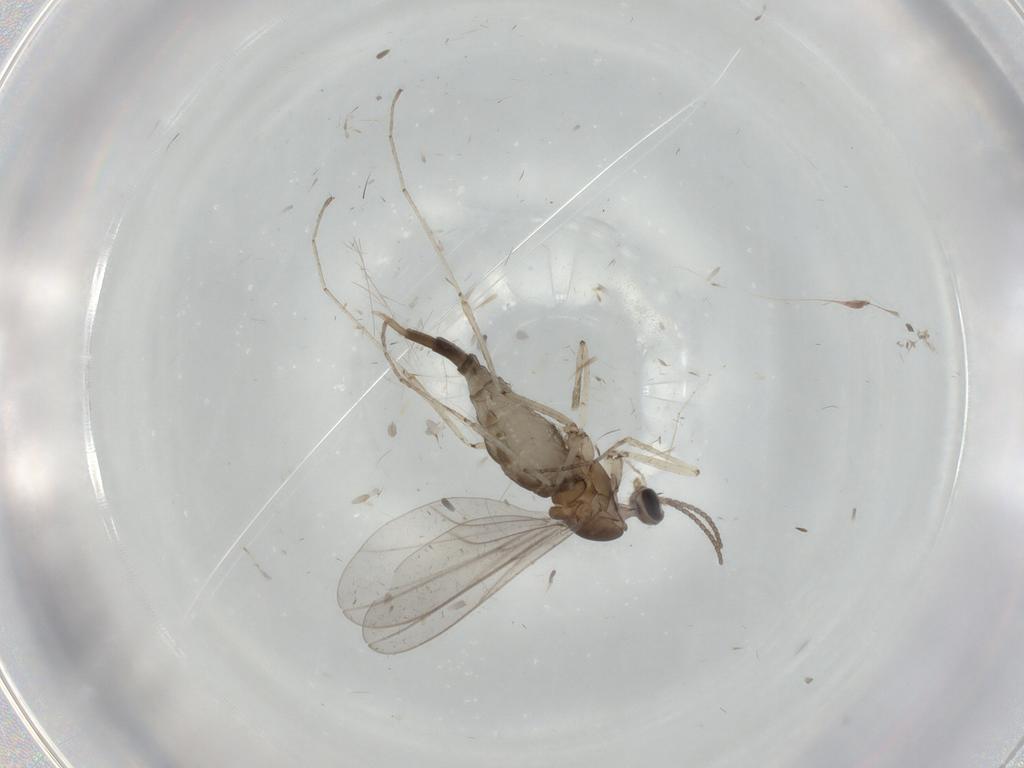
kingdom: Animalia
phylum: Arthropoda
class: Insecta
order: Diptera
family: Cecidomyiidae
